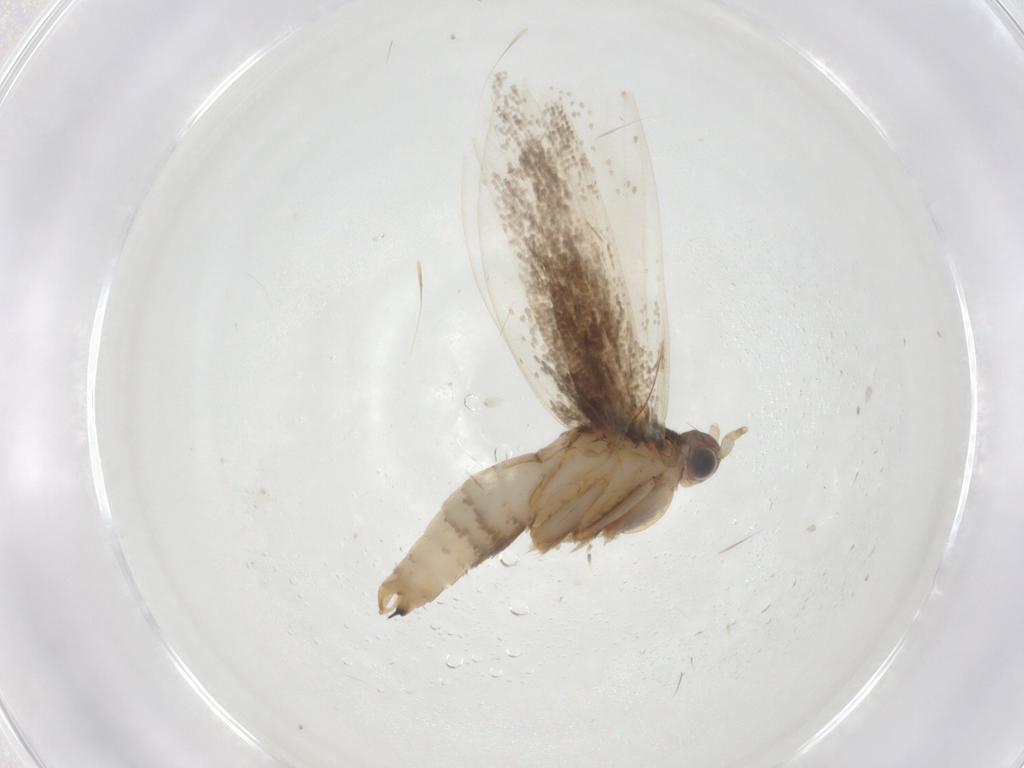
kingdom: Animalia
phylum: Arthropoda
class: Insecta
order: Lepidoptera
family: Tineidae
